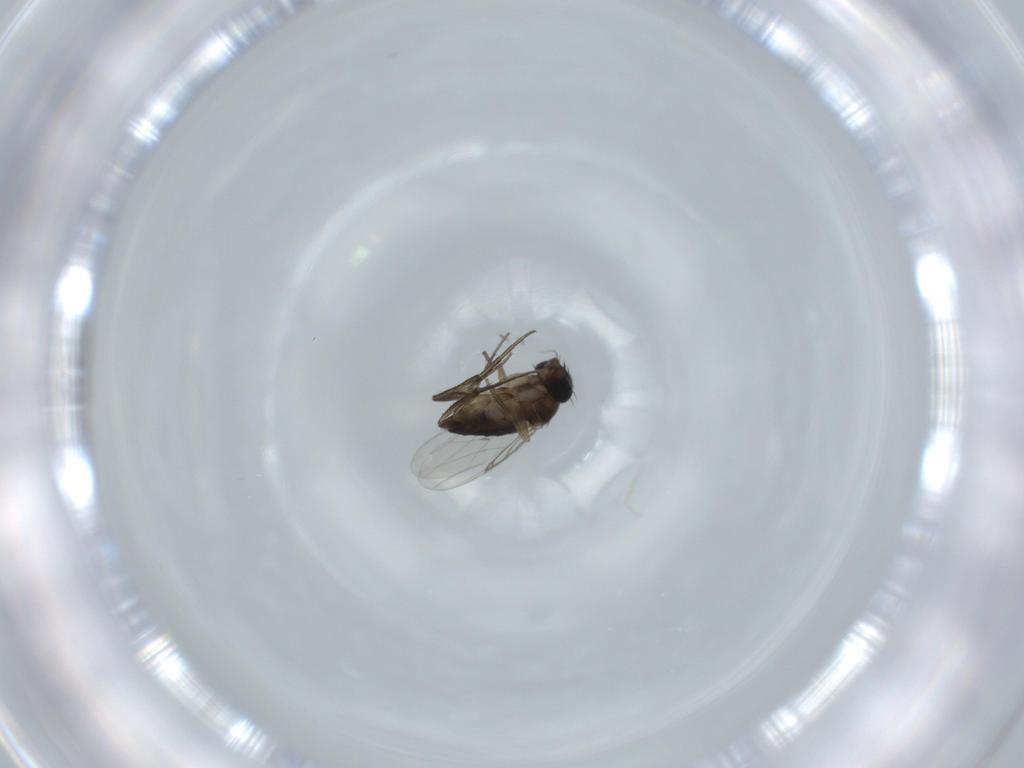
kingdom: Animalia
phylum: Arthropoda
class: Insecta
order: Diptera
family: Phoridae
